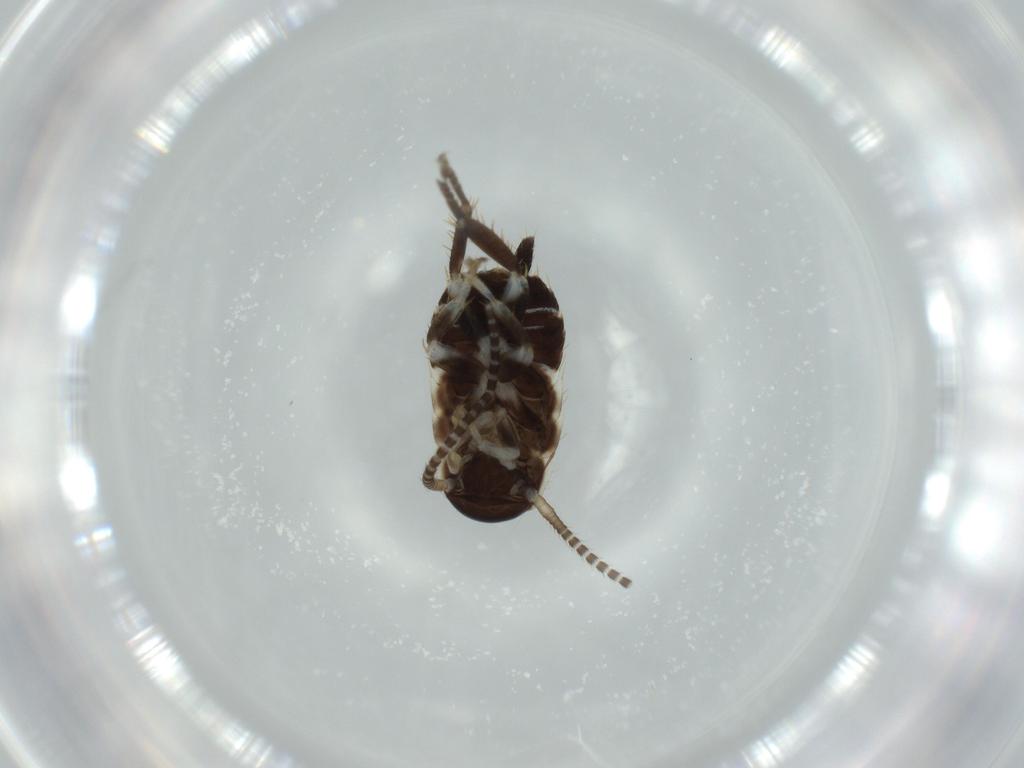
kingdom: Animalia
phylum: Arthropoda
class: Insecta
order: Blattodea
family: Ectobiidae
